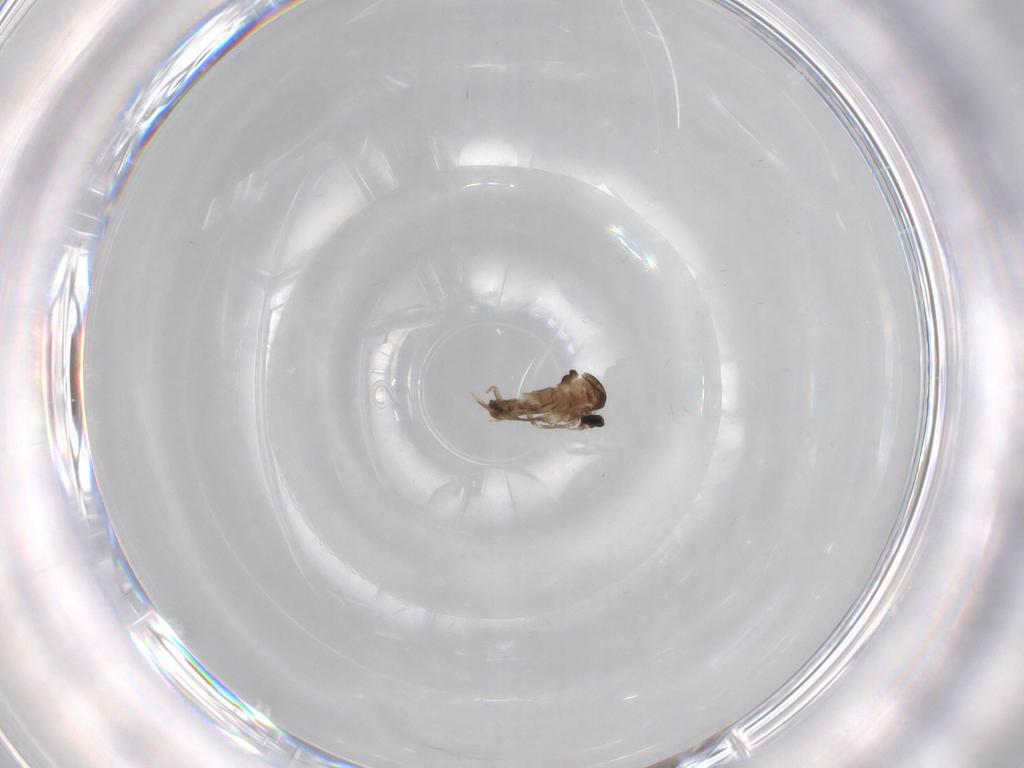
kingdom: Animalia
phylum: Arthropoda
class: Insecta
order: Diptera
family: Ceratopogonidae
